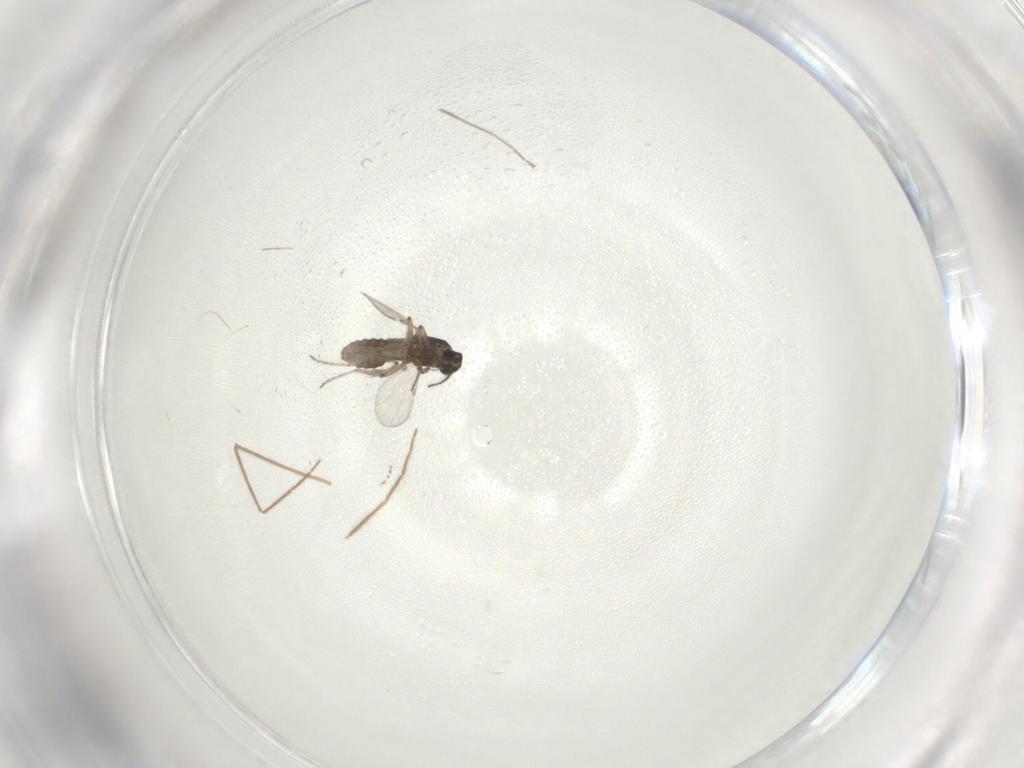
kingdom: Animalia
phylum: Arthropoda
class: Insecta
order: Diptera
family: Ceratopogonidae
